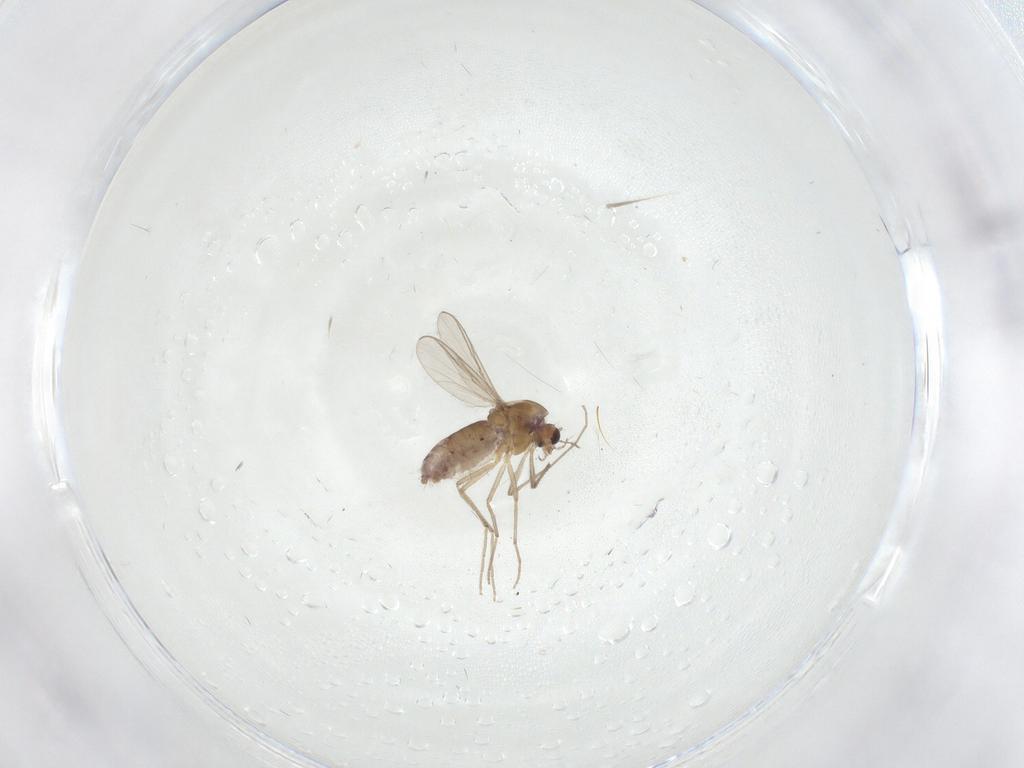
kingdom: Animalia
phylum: Arthropoda
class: Insecta
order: Diptera
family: Chironomidae
